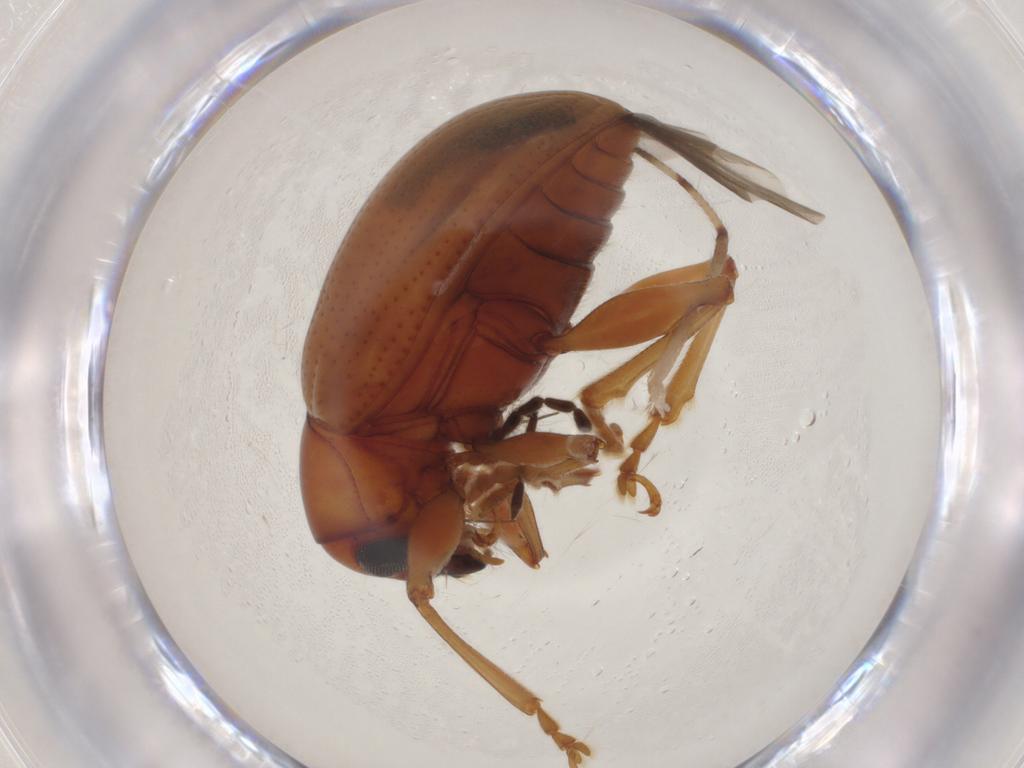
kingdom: Animalia
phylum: Arthropoda
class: Insecta
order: Coleoptera
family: Chrysomelidae
